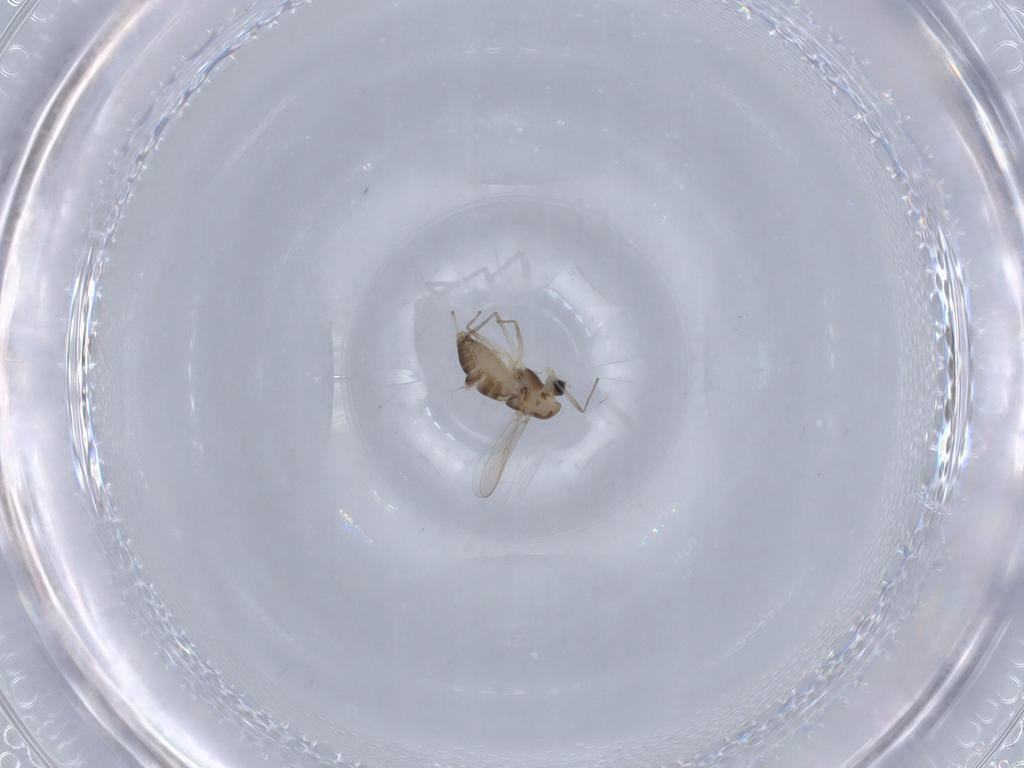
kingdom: Animalia
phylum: Arthropoda
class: Insecta
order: Diptera
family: Chironomidae
